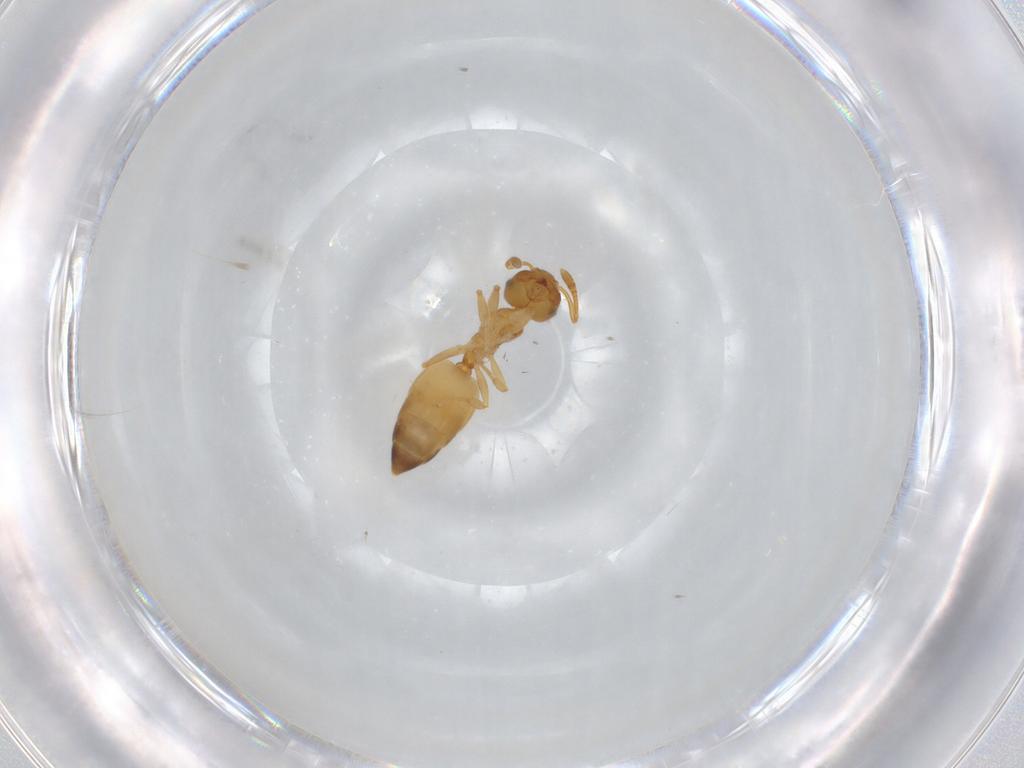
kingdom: Animalia
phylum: Arthropoda
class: Insecta
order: Hymenoptera
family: Formicidae
